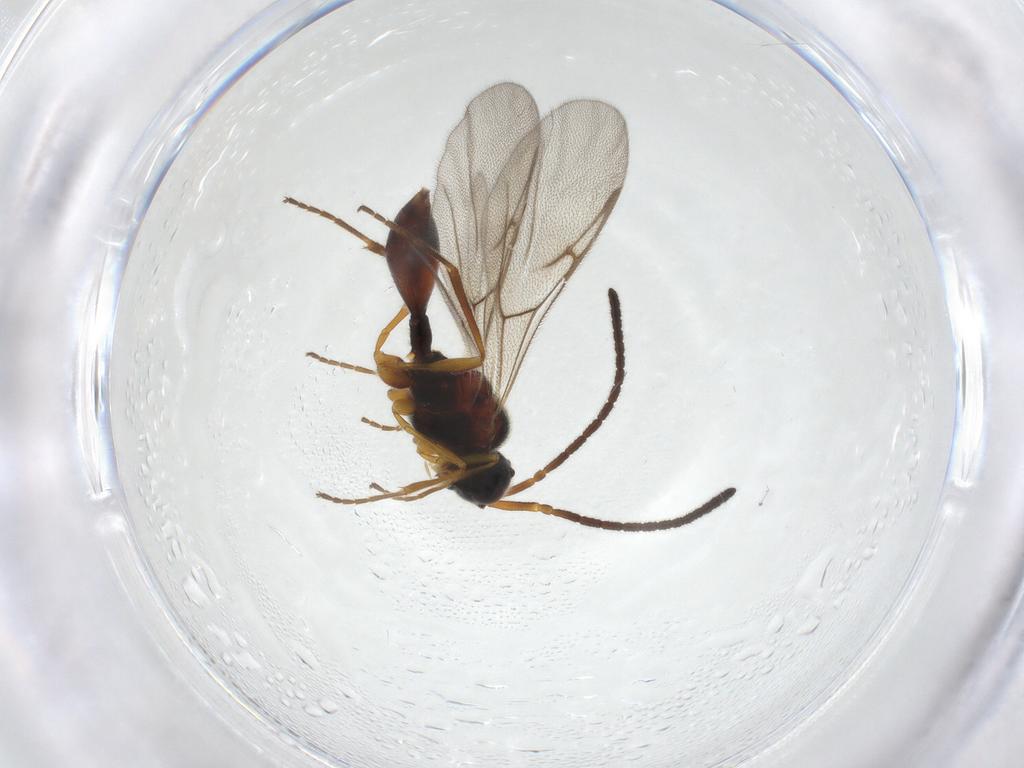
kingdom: Animalia
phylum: Arthropoda
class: Insecta
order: Hymenoptera
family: Diapriidae
